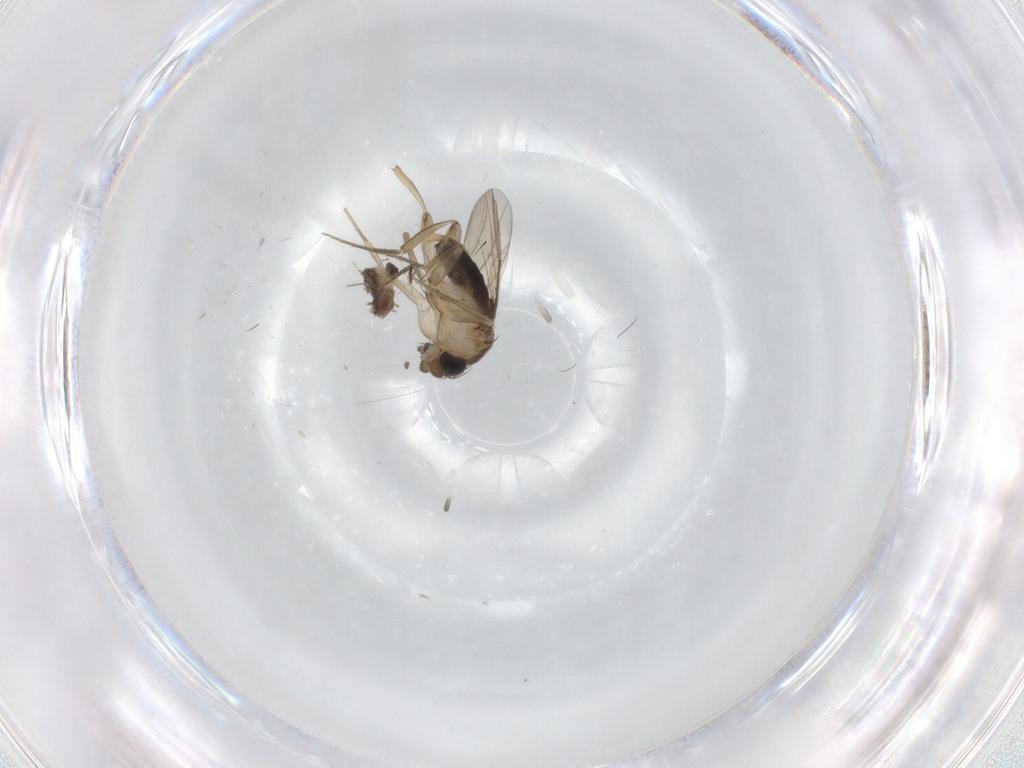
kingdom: Animalia
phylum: Arthropoda
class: Insecta
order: Diptera
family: Phoridae
